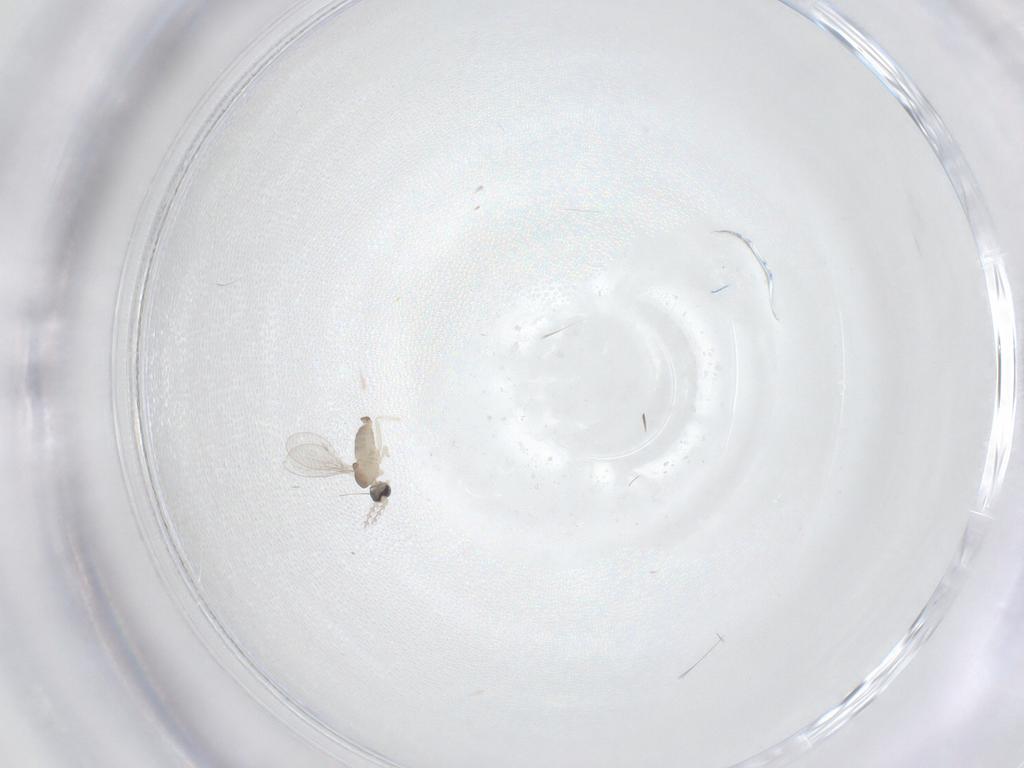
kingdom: Animalia
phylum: Arthropoda
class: Insecta
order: Diptera
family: Cecidomyiidae
